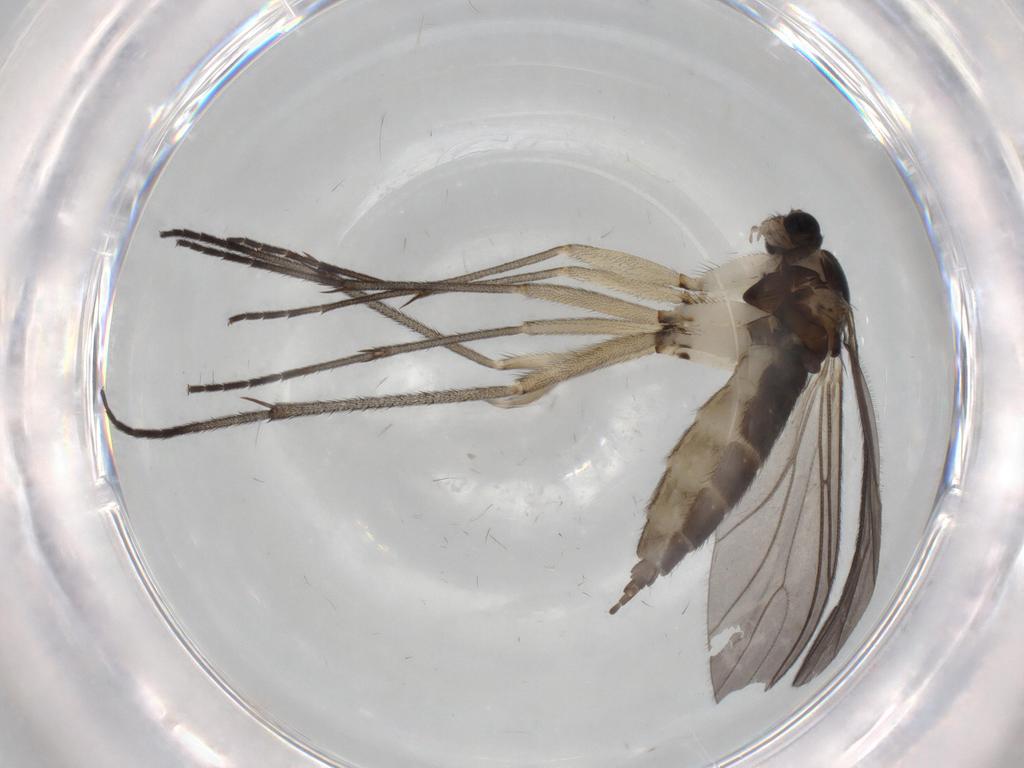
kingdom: Animalia
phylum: Arthropoda
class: Insecta
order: Diptera
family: Sciaridae
